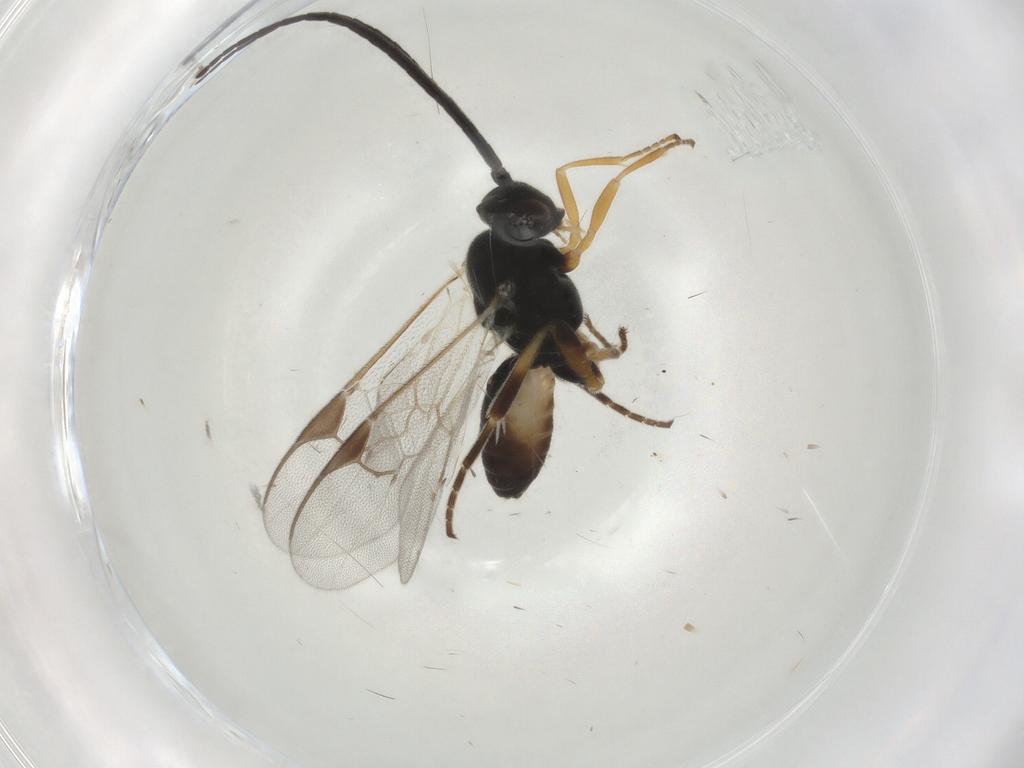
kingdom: Animalia
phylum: Arthropoda
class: Insecta
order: Hymenoptera
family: Braconidae
